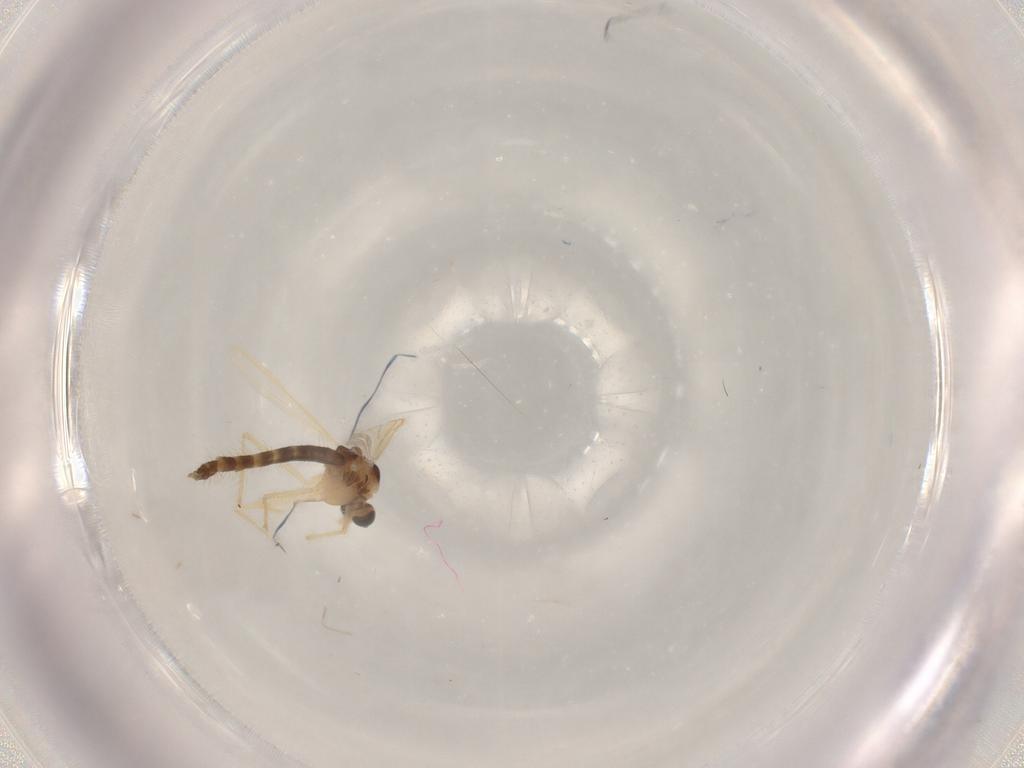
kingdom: Animalia
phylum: Arthropoda
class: Insecta
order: Diptera
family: Chironomidae
